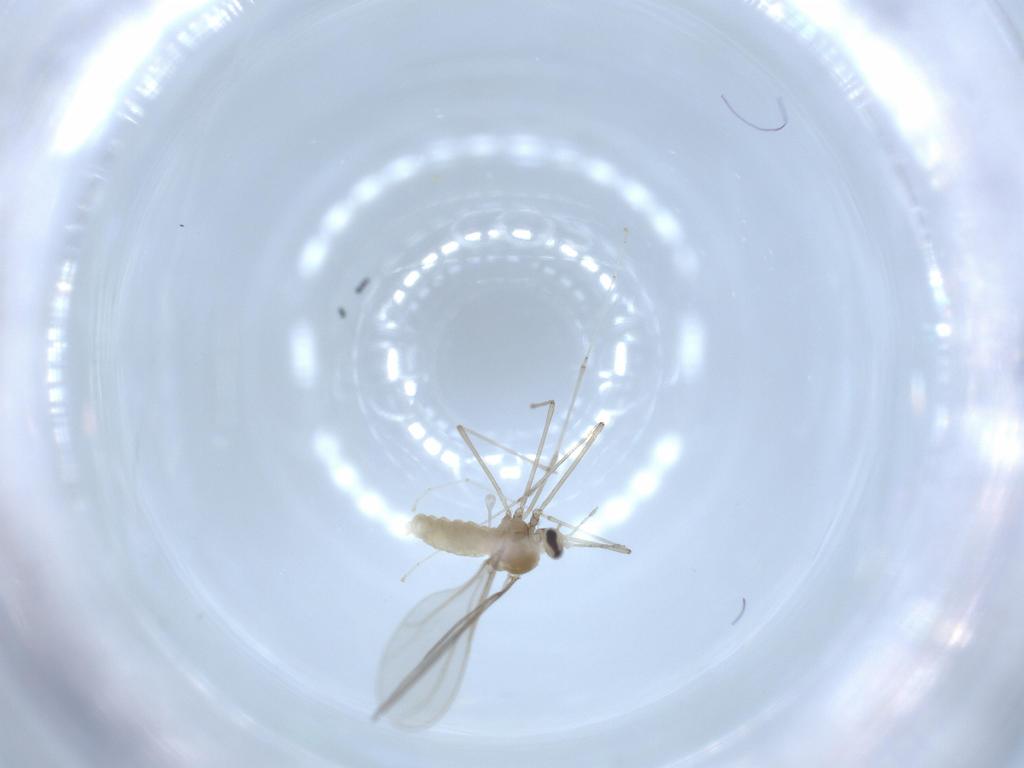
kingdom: Animalia
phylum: Arthropoda
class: Insecta
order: Diptera
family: Cecidomyiidae
